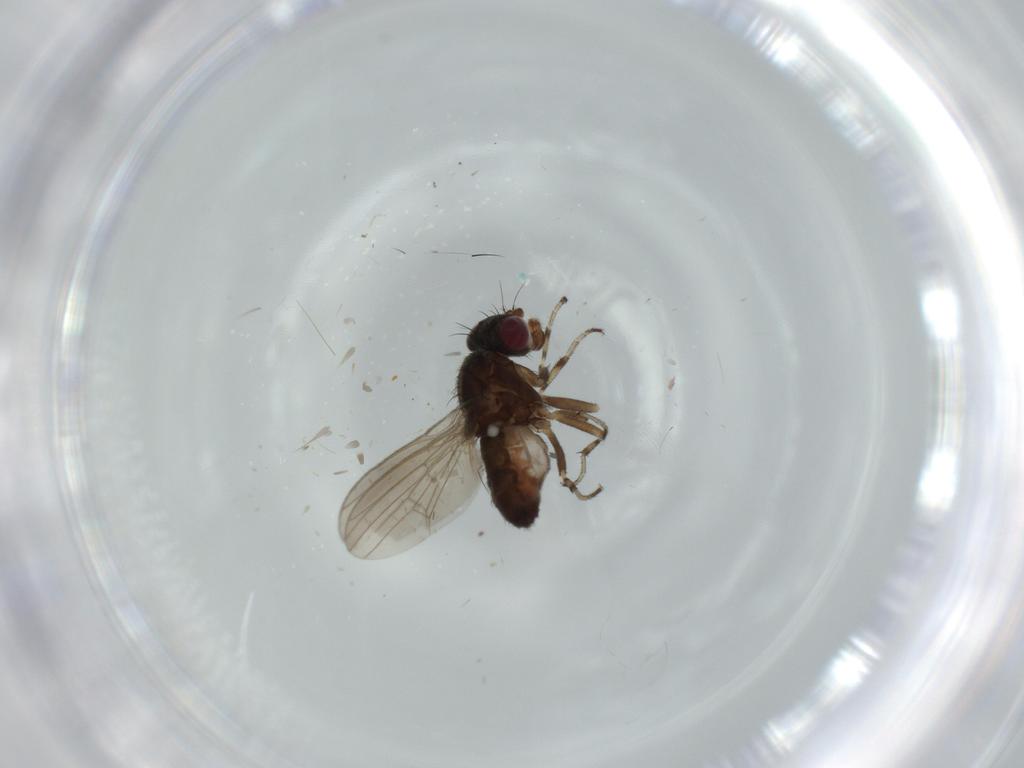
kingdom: Animalia
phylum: Arthropoda
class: Insecta
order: Diptera
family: Heleomyzidae
